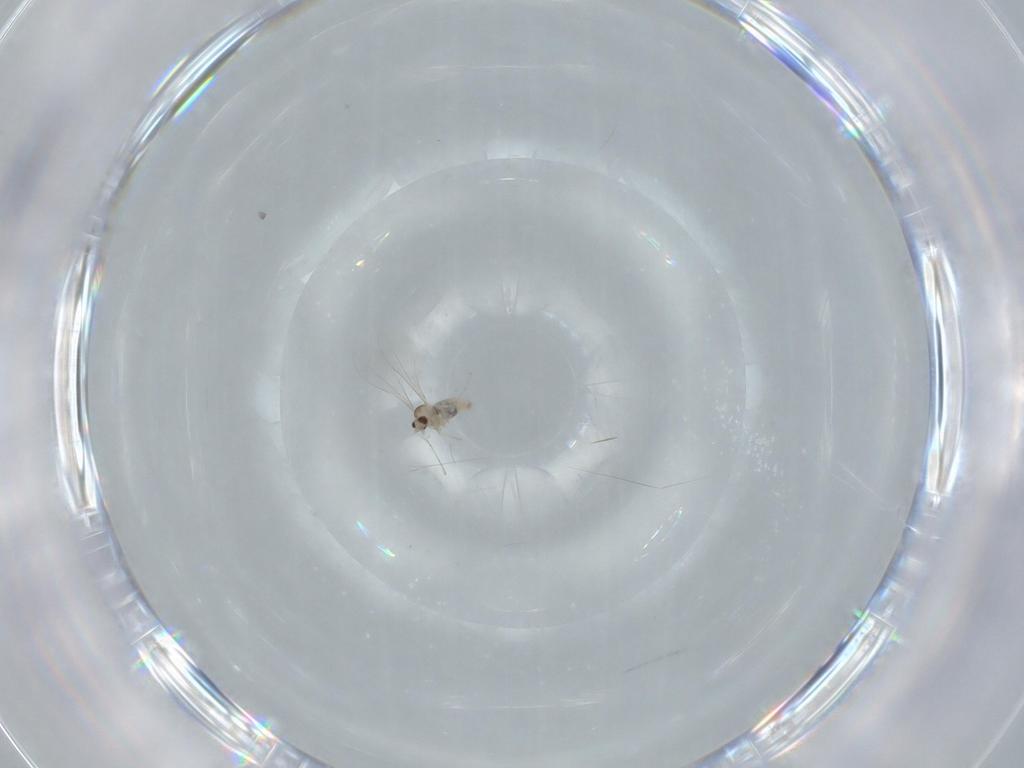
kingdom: Animalia
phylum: Arthropoda
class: Insecta
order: Diptera
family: Cecidomyiidae
